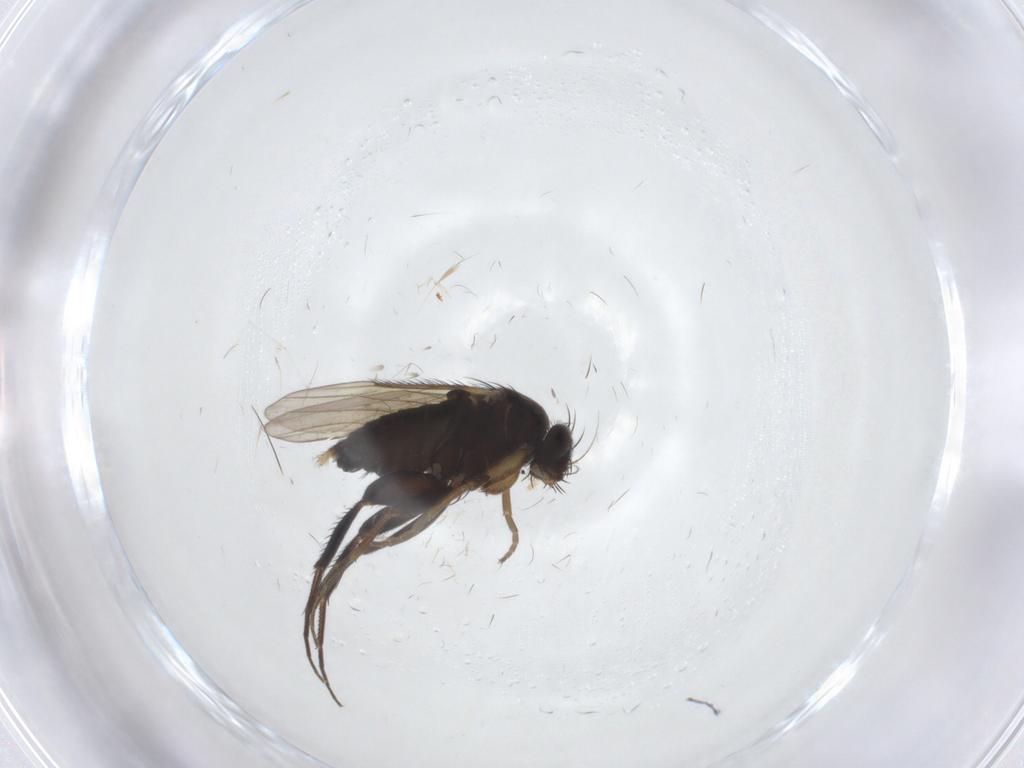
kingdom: Animalia
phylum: Arthropoda
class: Insecta
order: Diptera
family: Phoridae
